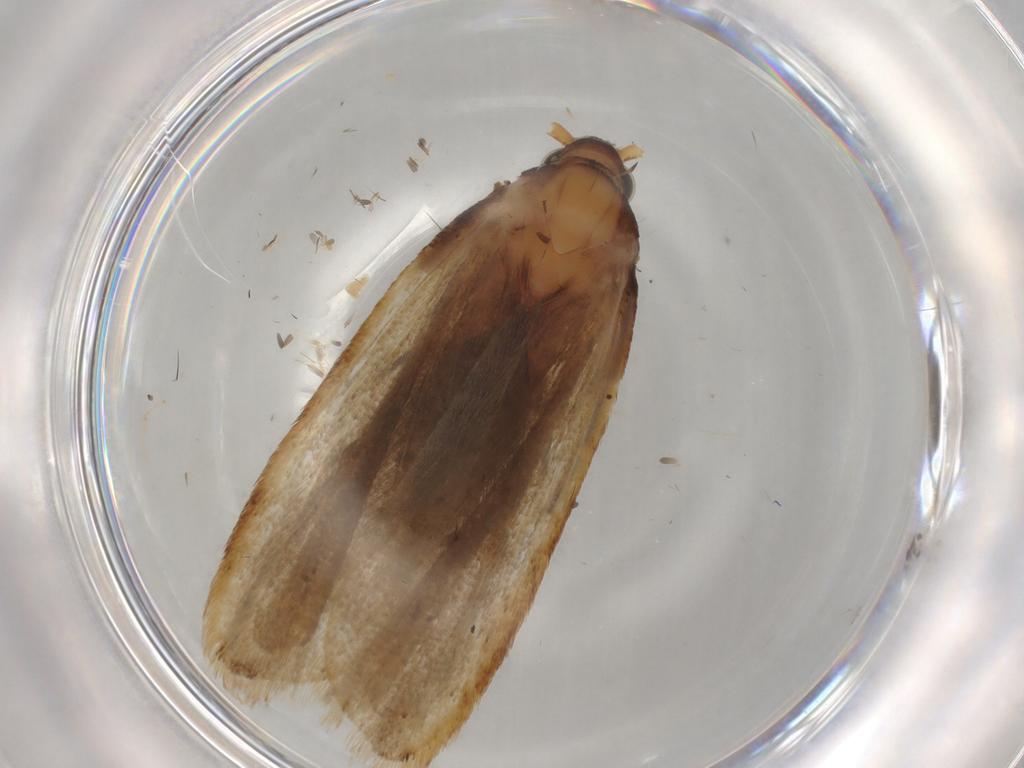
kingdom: Animalia
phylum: Arthropoda
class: Insecta
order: Lepidoptera
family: Lecithoceridae
